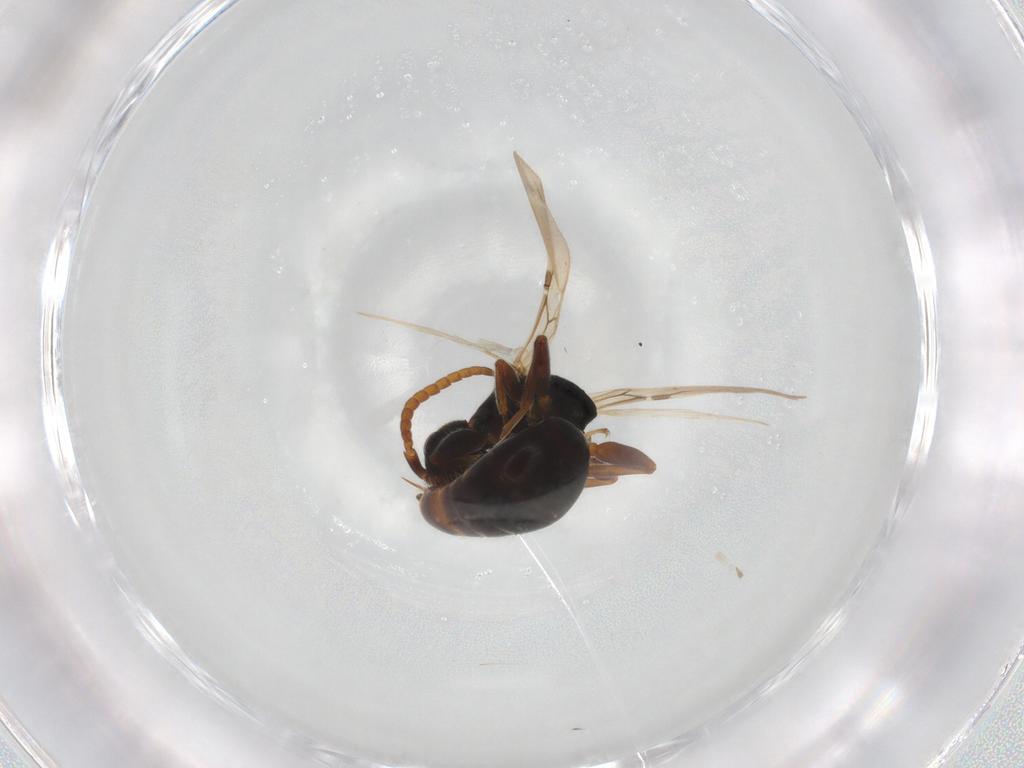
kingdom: Animalia
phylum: Arthropoda
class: Insecta
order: Hymenoptera
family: Bethylidae
